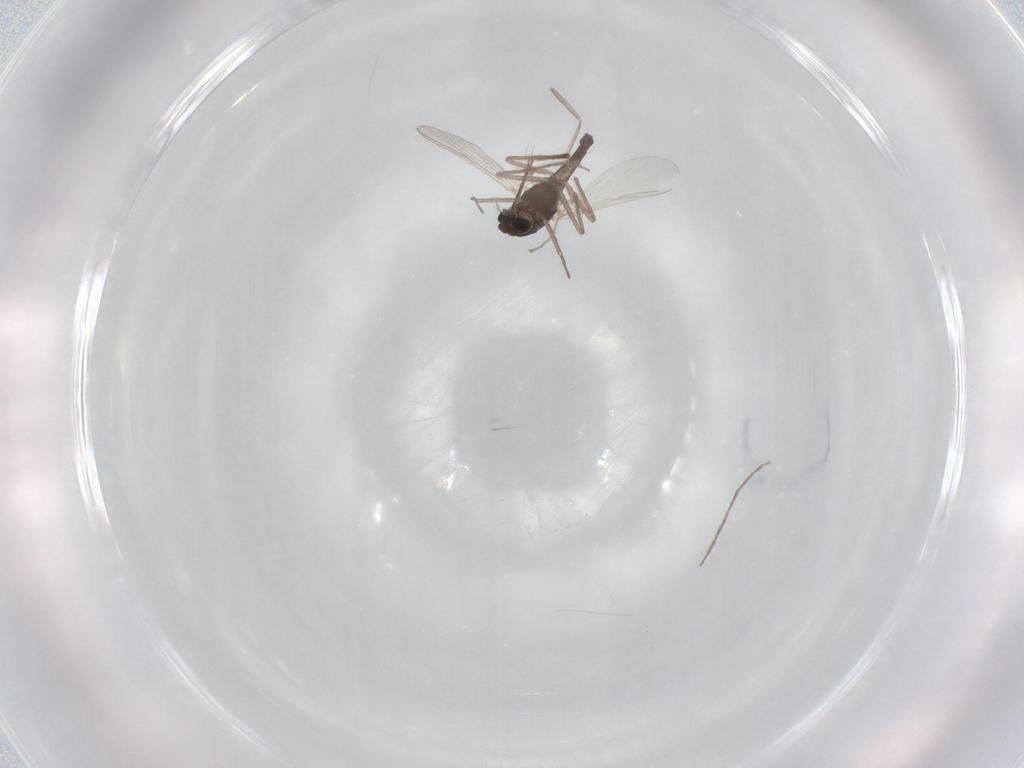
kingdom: Animalia
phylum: Arthropoda
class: Insecta
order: Diptera
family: Chironomidae
